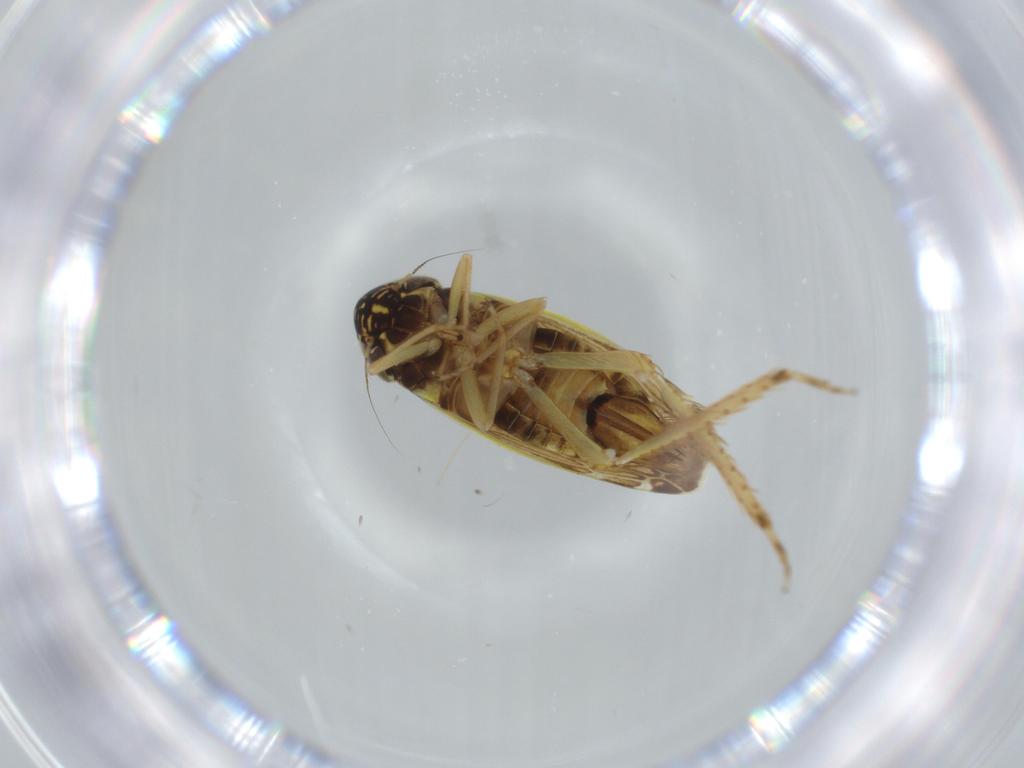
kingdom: Animalia
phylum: Arthropoda
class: Insecta
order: Hemiptera
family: Cicadellidae
